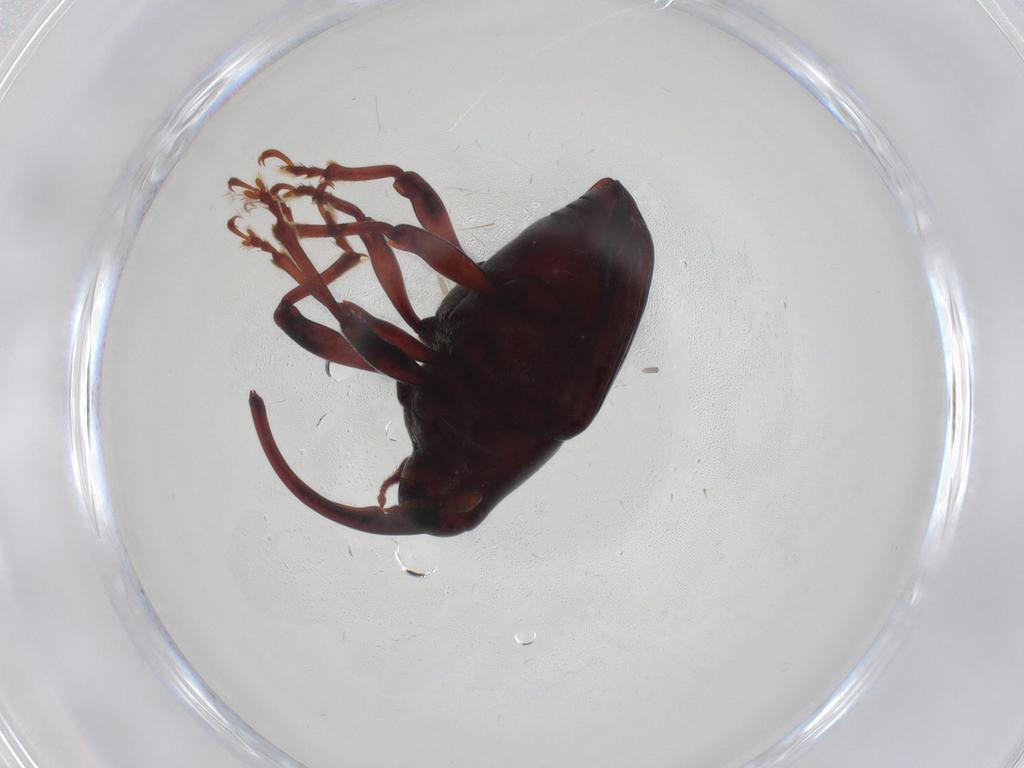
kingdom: Animalia
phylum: Arthropoda
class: Insecta
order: Coleoptera
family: Curculionidae
